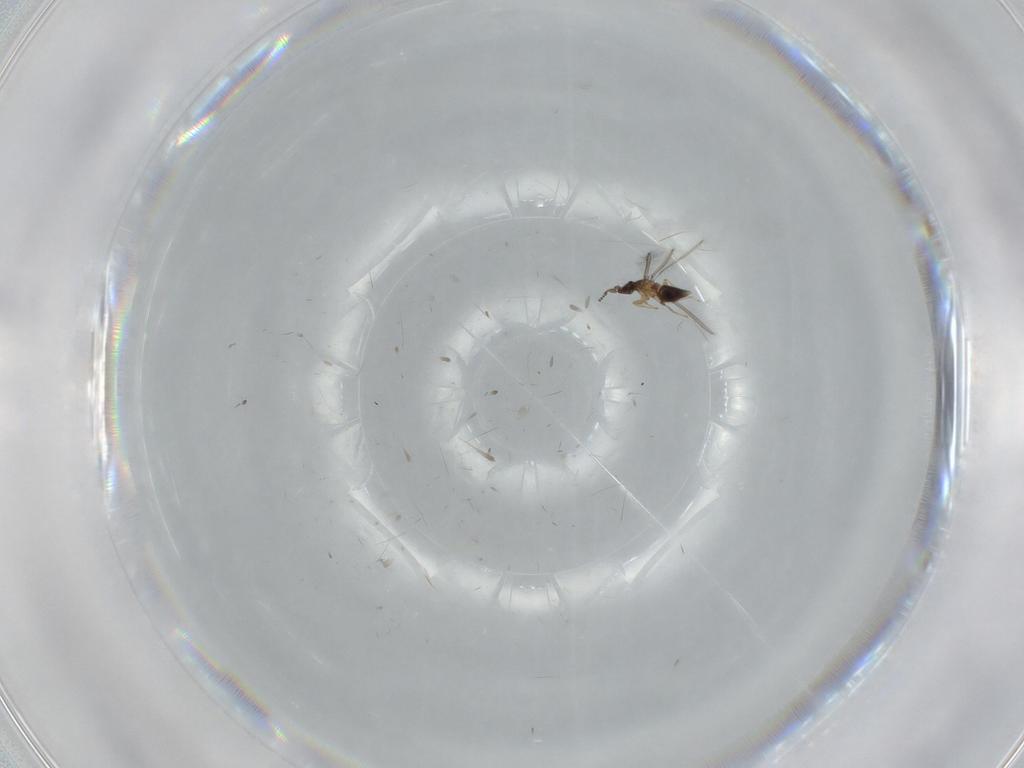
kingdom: Animalia
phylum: Arthropoda
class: Insecta
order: Hymenoptera
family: Mymaridae
